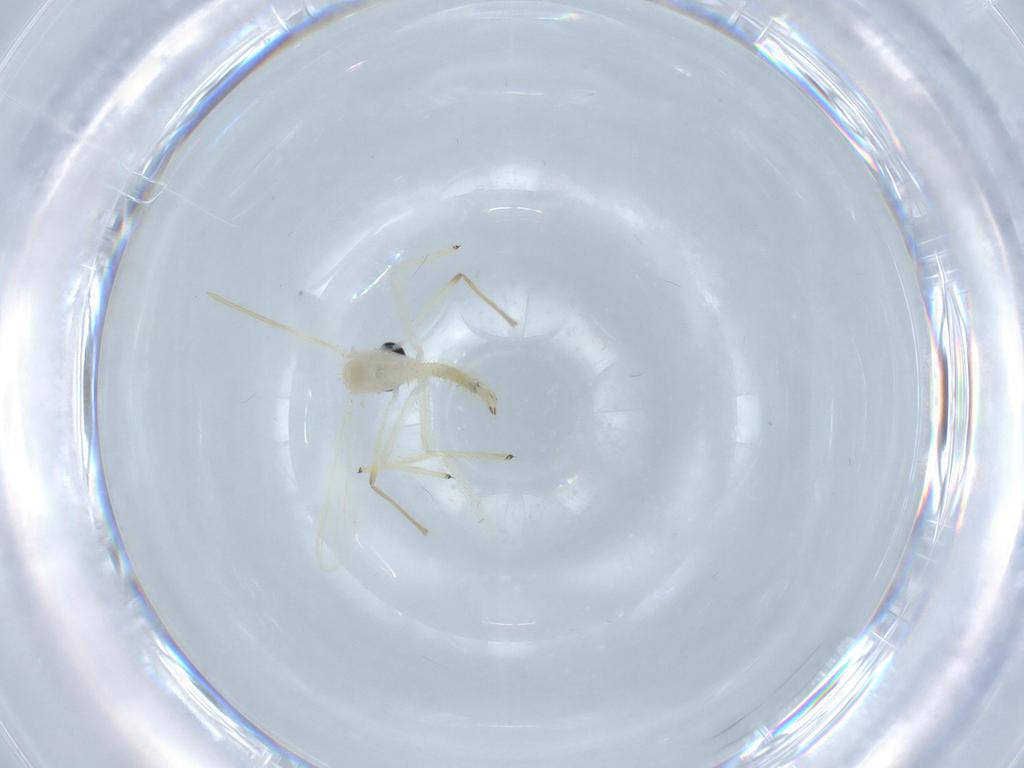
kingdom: Animalia
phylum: Arthropoda
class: Insecta
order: Diptera
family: Chironomidae
